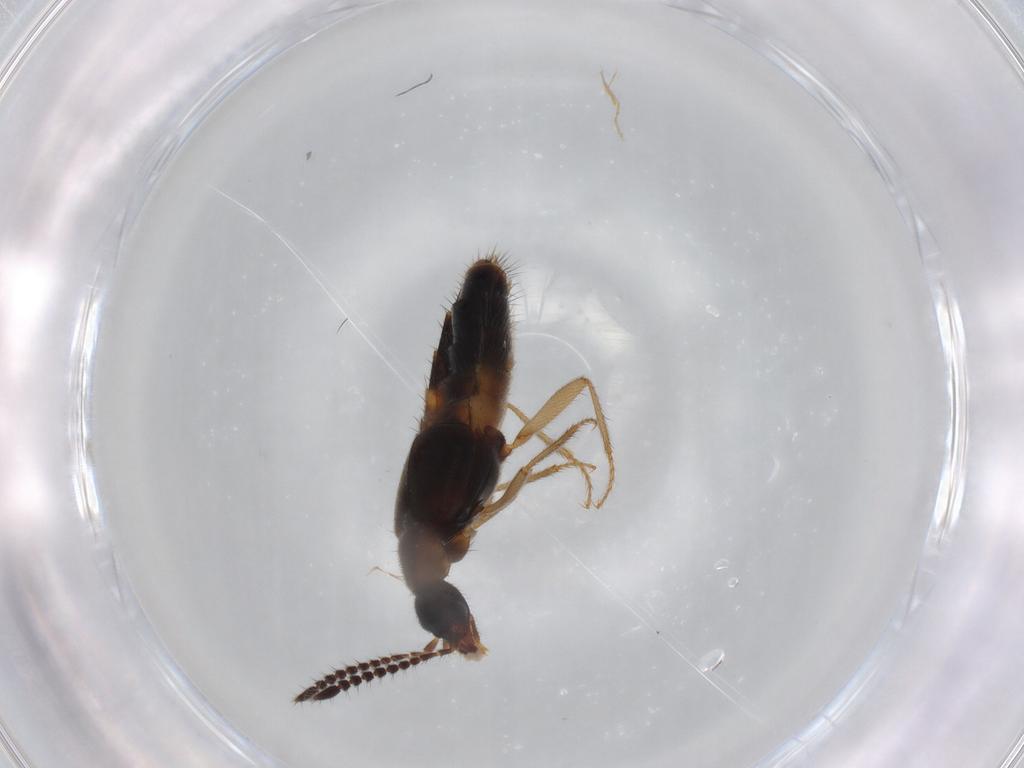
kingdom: Animalia
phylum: Arthropoda
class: Insecta
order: Coleoptera
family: Staphylinidae
